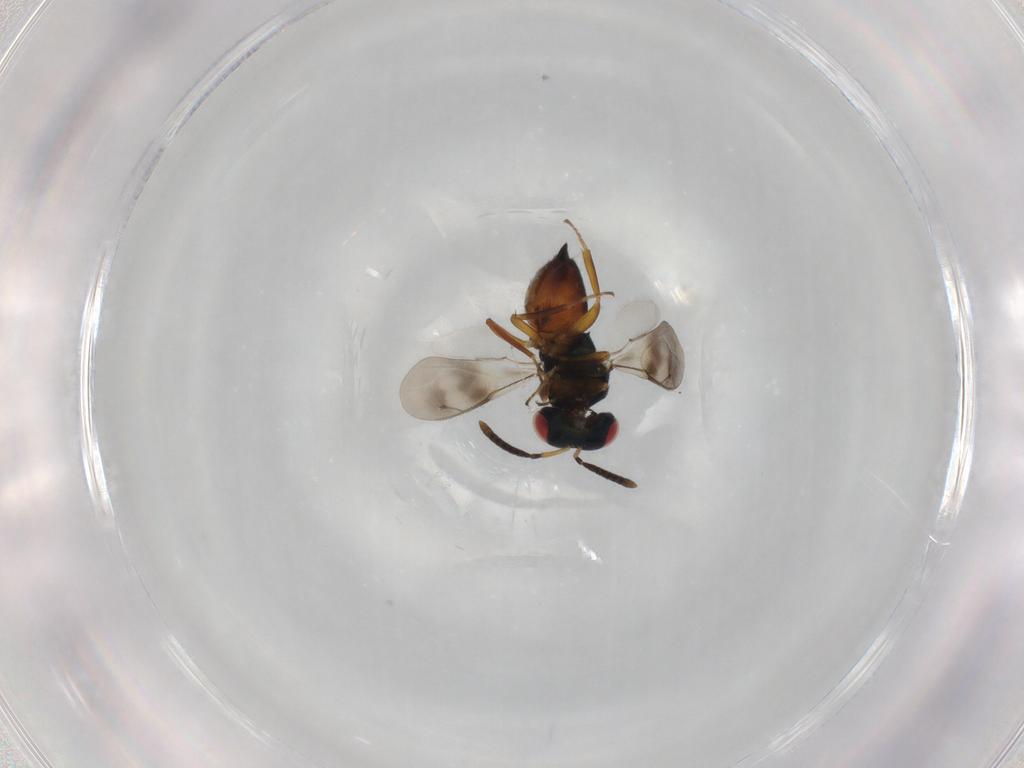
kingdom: Animalia
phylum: Arthropoda
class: Insecta
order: Hymenoptera
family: Pteromalidae
